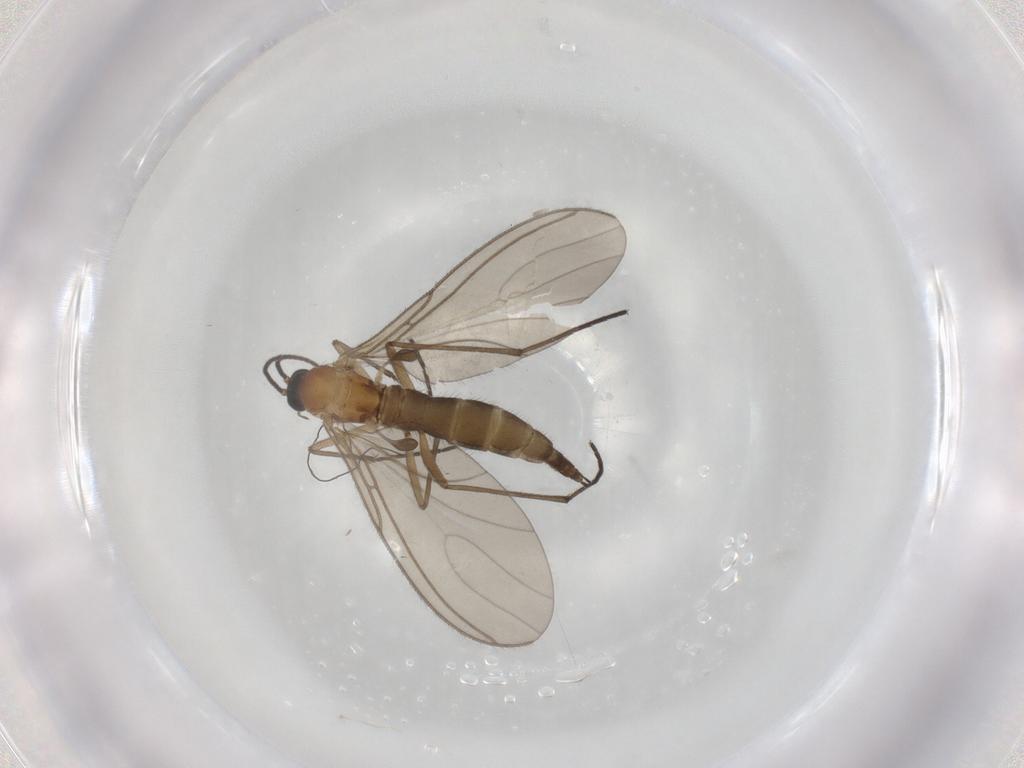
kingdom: Animalia
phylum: Arthropoda
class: Insecta
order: Diptera
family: Sciaridae
